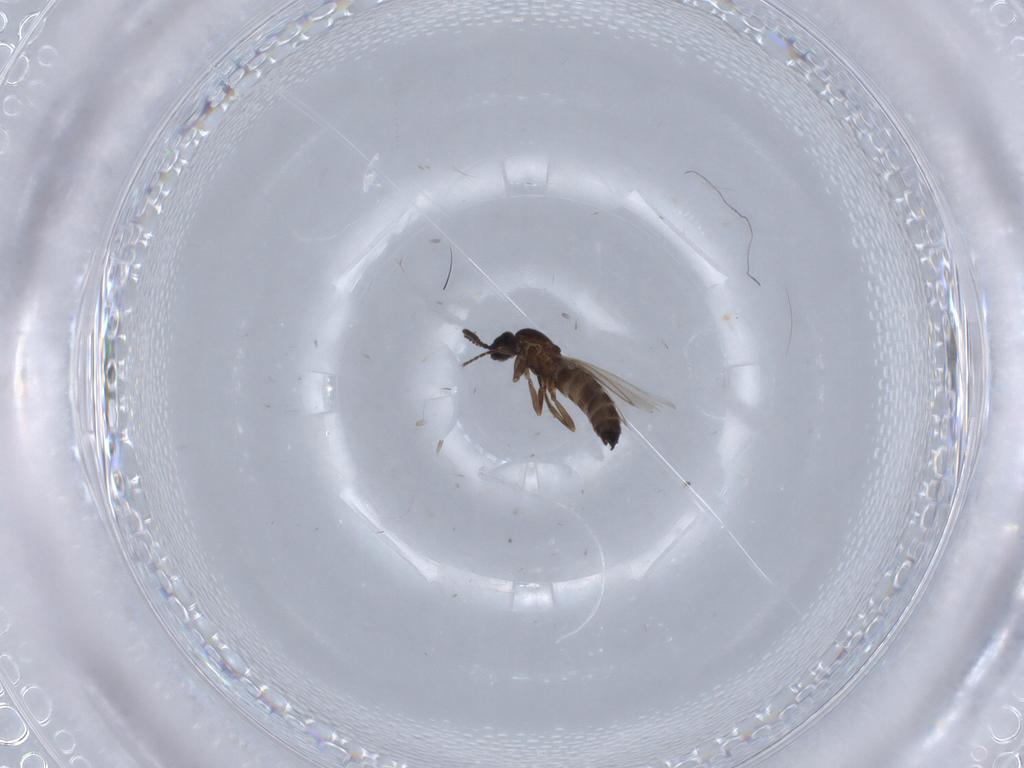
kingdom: Animalia
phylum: Arthropoda
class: Insecta
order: Diptera
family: Scatopsidae
